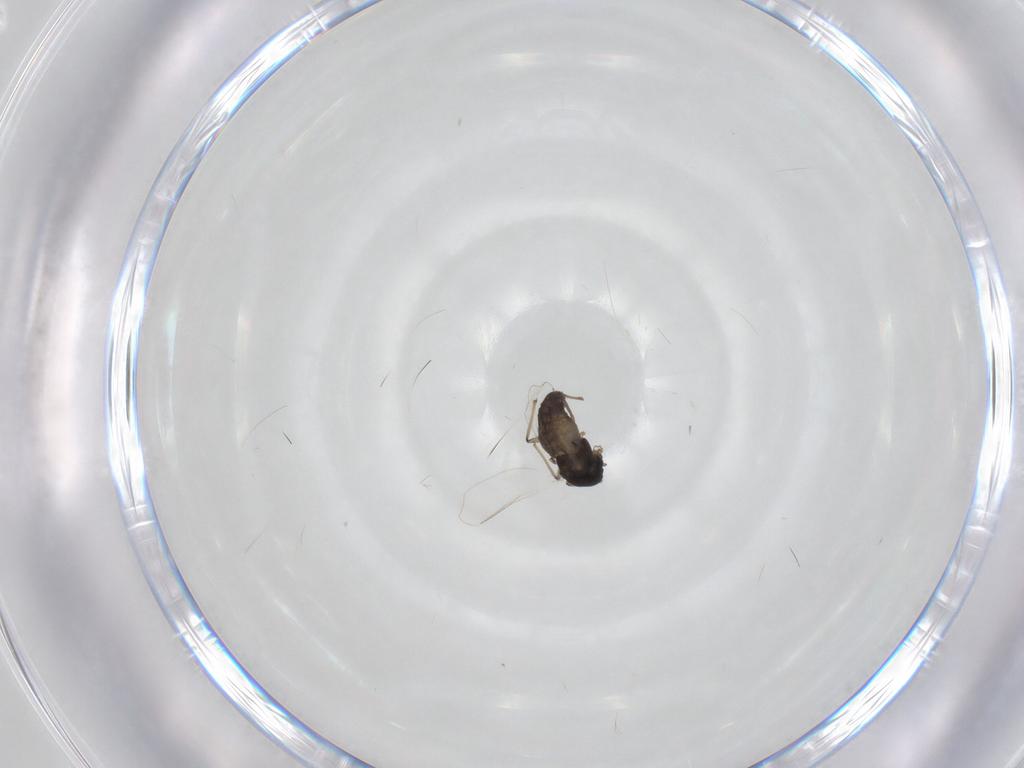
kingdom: Animalia
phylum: Arthropoda
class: Insecta
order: Diptera
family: Chironomidae
